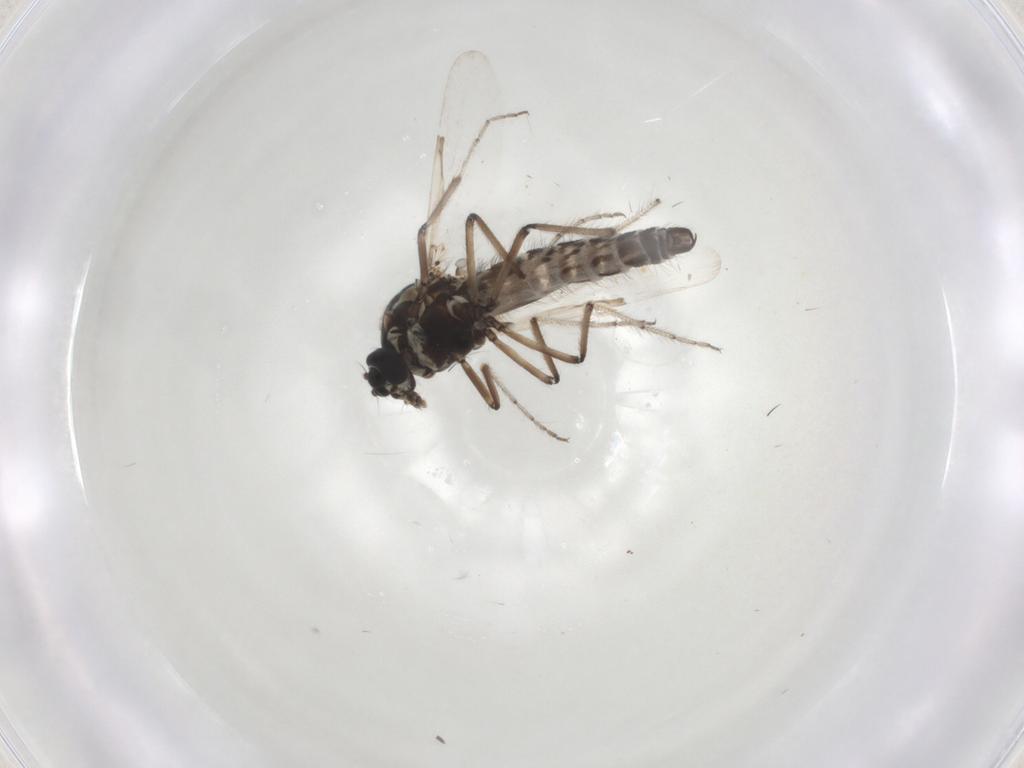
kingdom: Animalia
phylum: Arthropoda
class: Insecta
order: Diptera
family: Ceratopogonidae
